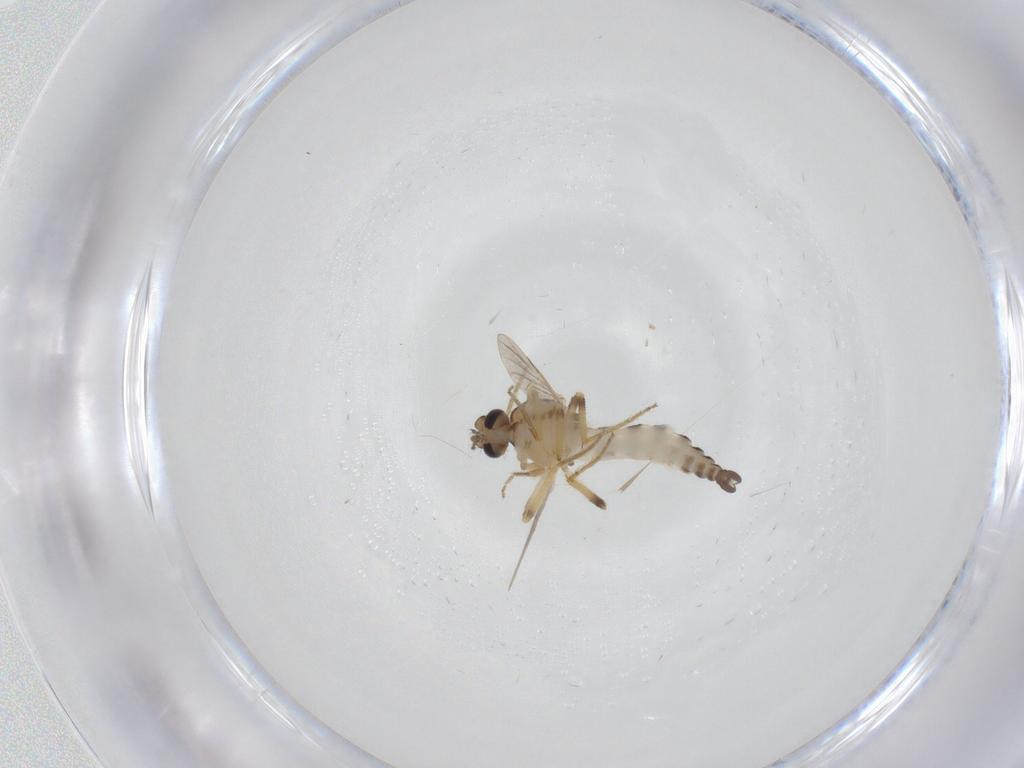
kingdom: Animalia
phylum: Arthropoda
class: Insecta
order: Diptera
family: Ceratopogonidae
